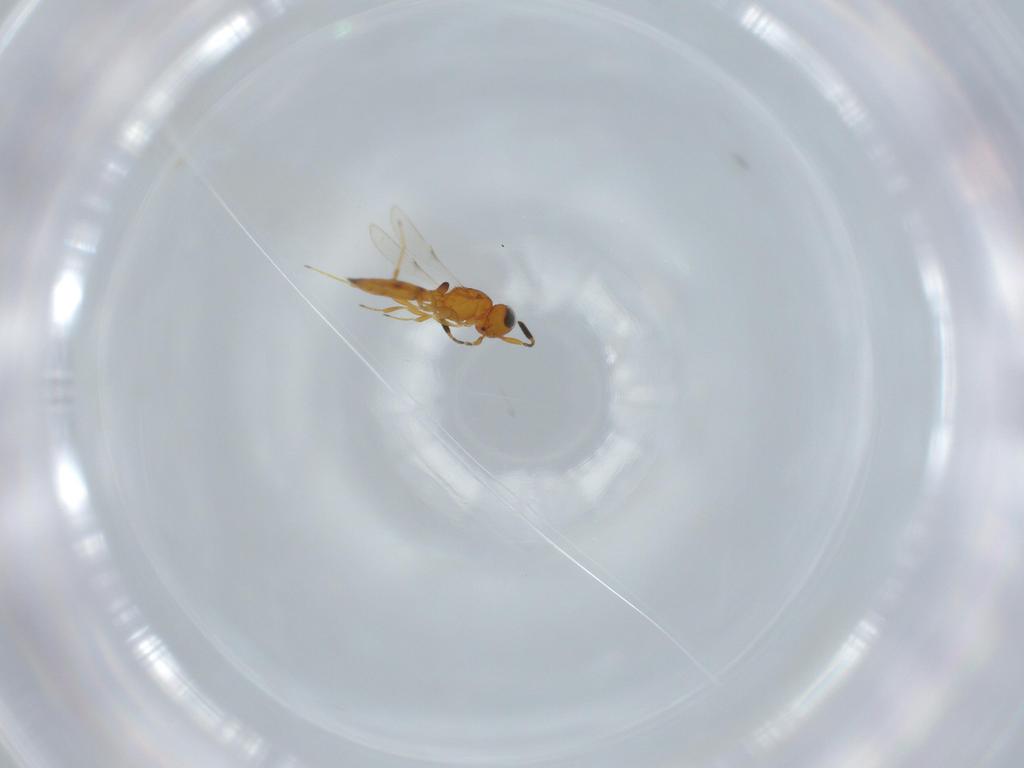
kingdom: Animalia
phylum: Arthropoda
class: Insecta
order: Hymenoptera
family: Scelionidae
